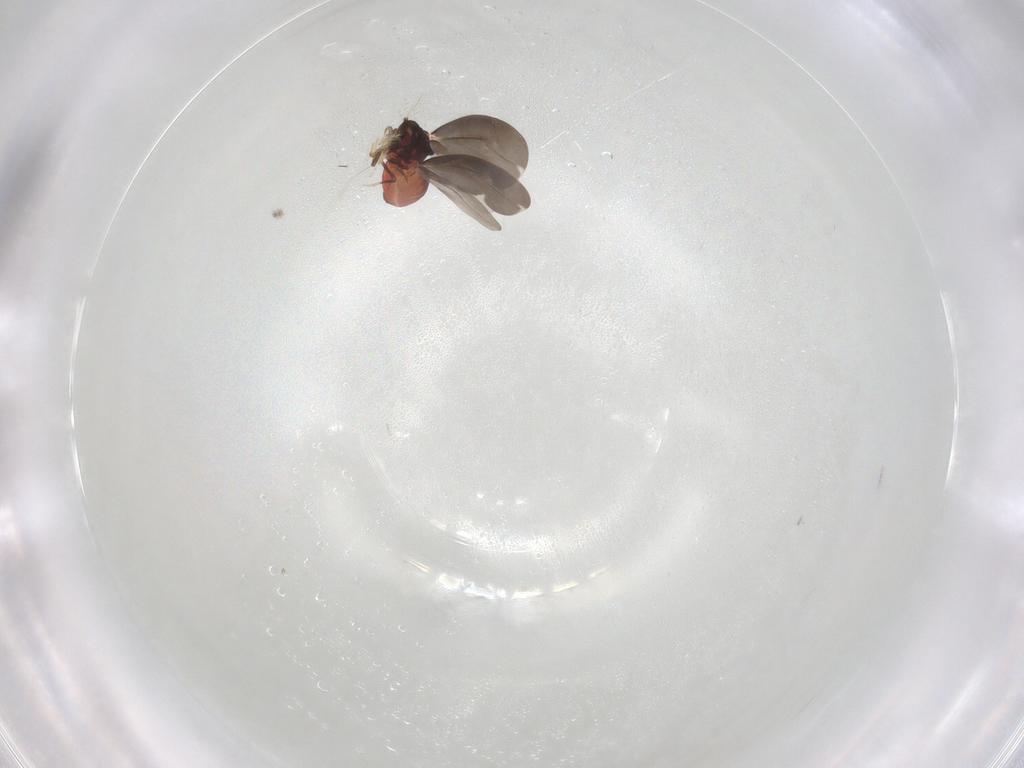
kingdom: Animalia
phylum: Arthropoda
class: Insecta
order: Hemiptera
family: Aleyrodidae
